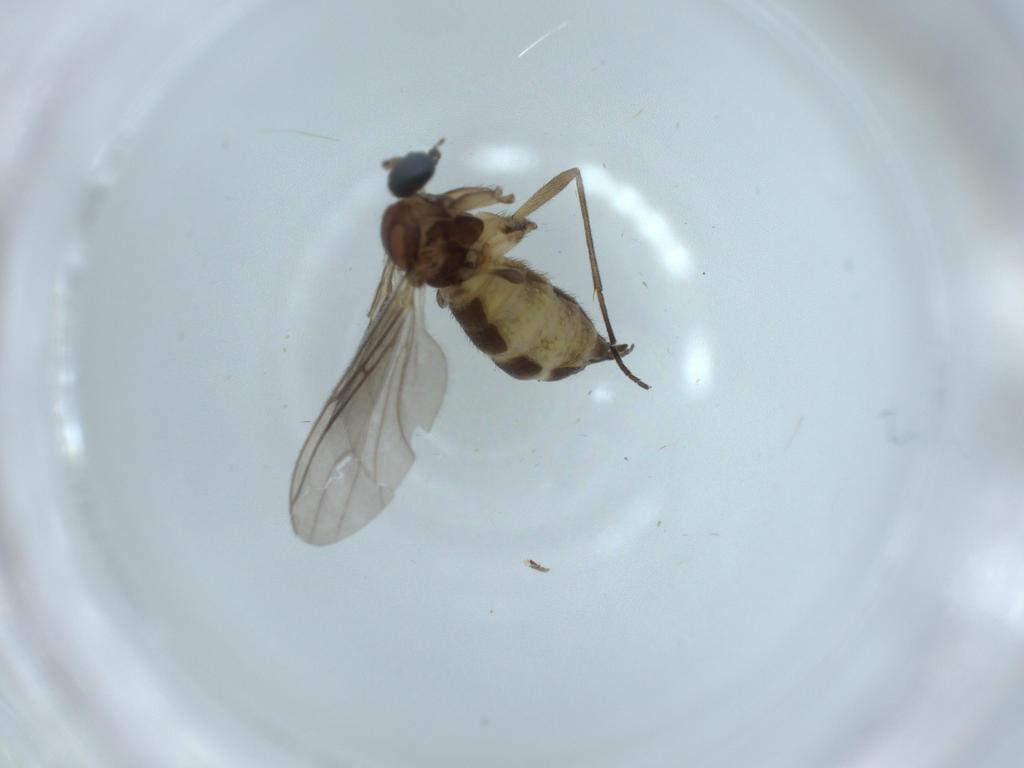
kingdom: Animalia
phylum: Arthropoda
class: Insecta
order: Diptera
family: Sciaridae
